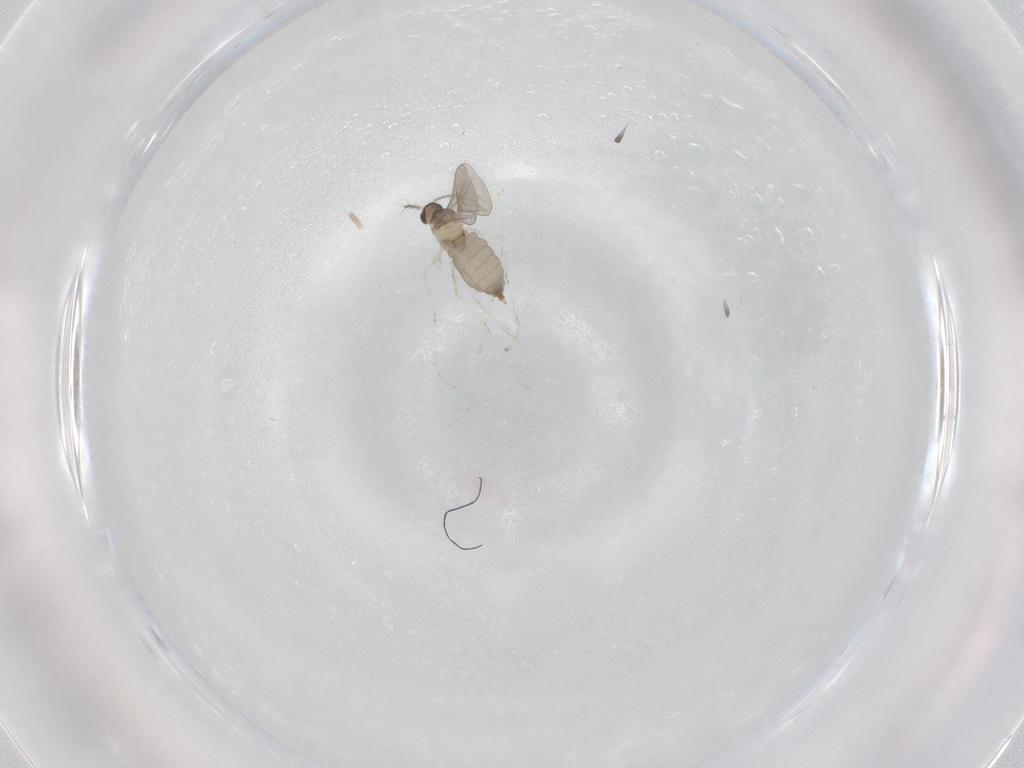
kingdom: Animalia
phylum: Arthropoda
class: Insecta
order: Diptera
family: Cecidomyiidae
